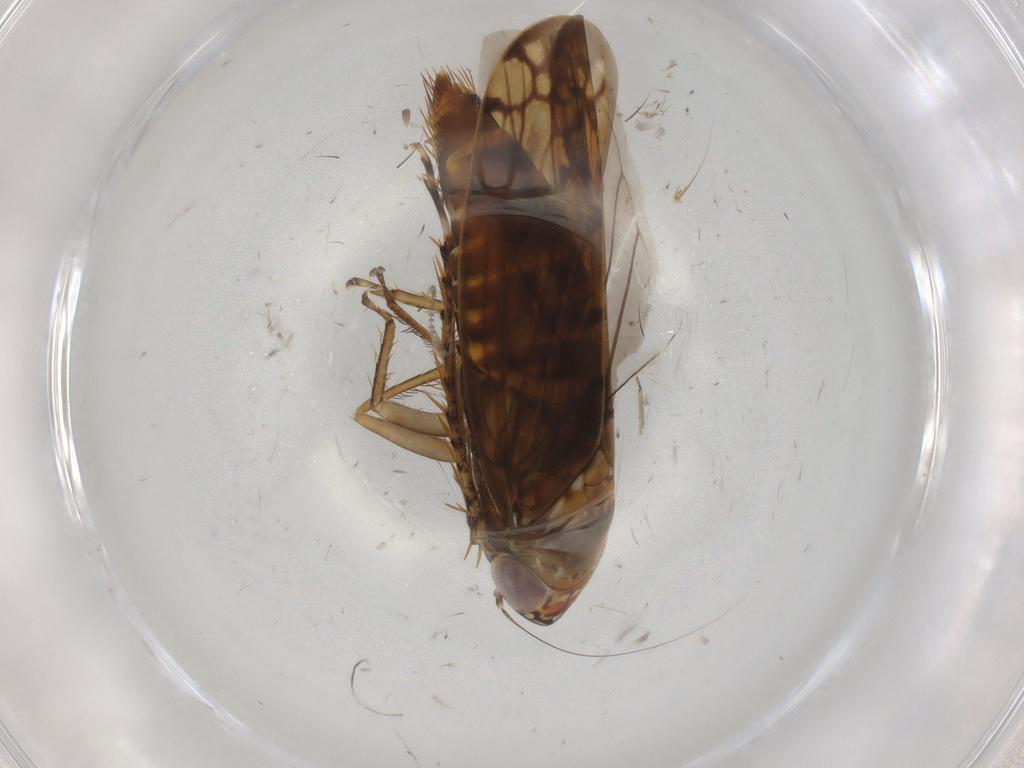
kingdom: Animalia
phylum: Arthropoda
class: Insecta
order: Hemiptera
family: Cicadellidae
